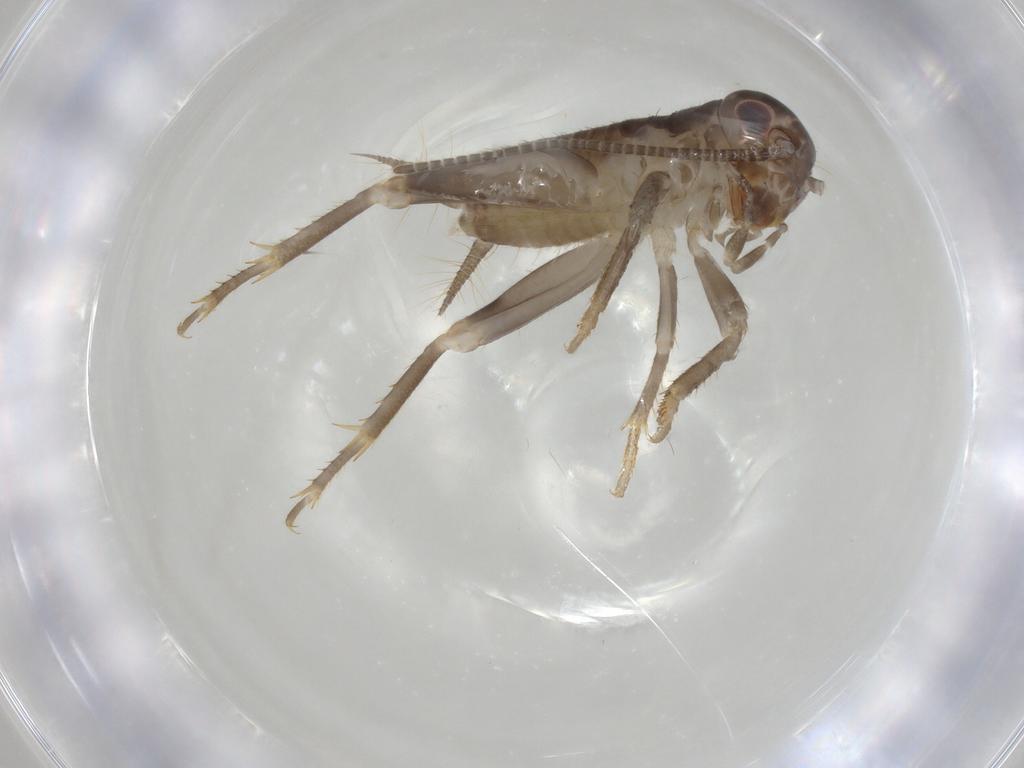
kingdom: Animalia
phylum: Arthropoda
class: Insecta
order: Orthoptera
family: Gryllidae
